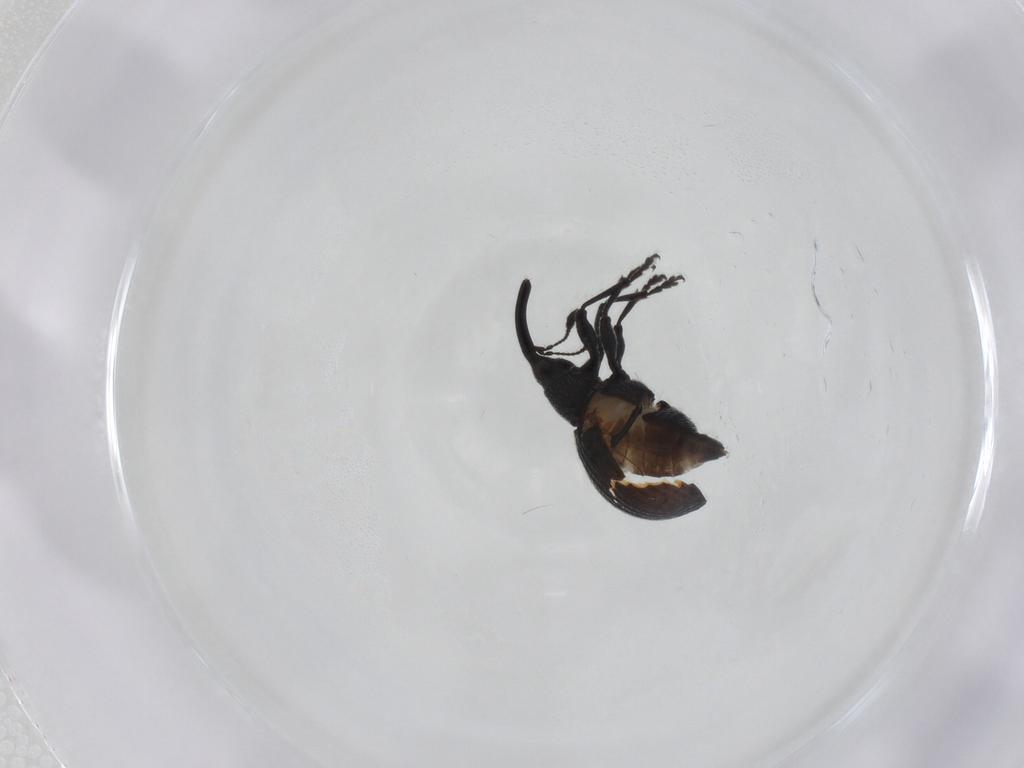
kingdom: Animalia
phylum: Arthropoda
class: Insecta
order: Coleoptera
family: Brentidae
